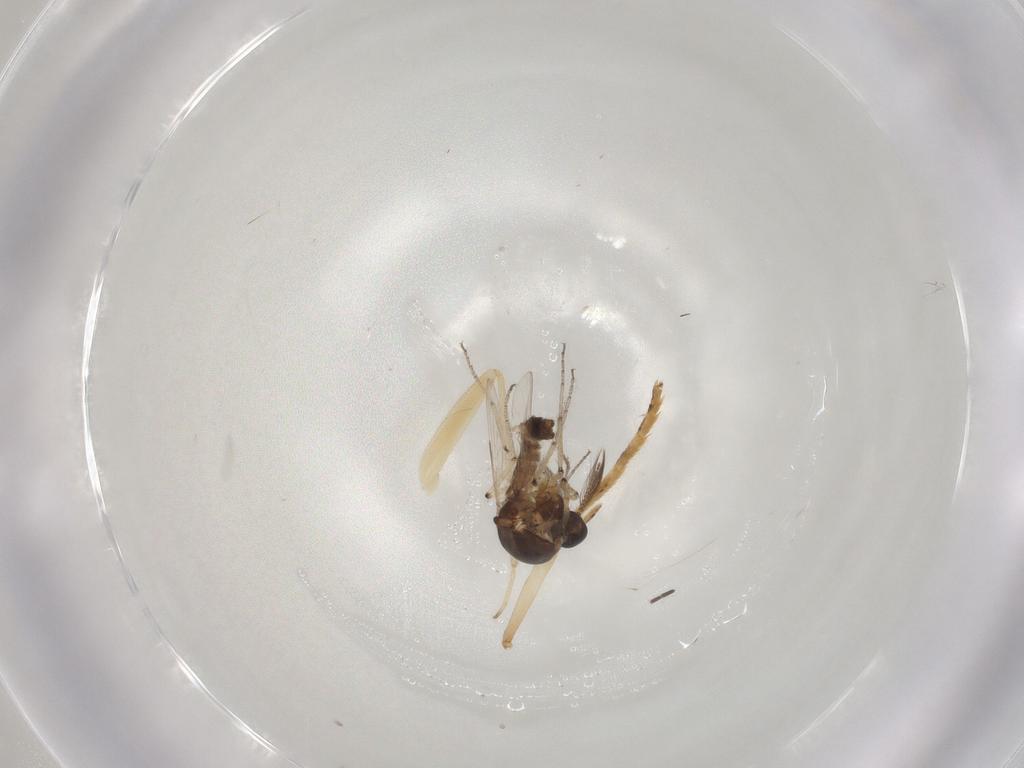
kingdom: Animalia
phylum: Arthropoda
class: Insecta
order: Diptera
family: Ceratopogonidae
